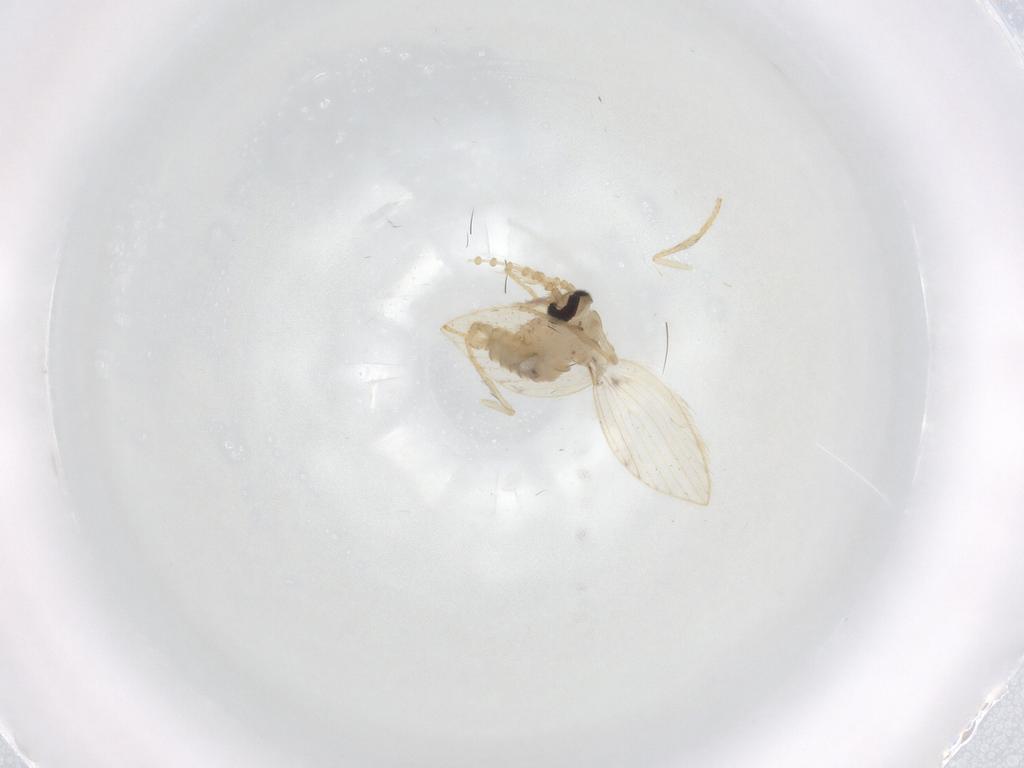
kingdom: Animalia
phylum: Arthropoda
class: Insecta
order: Diptera
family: Psychodidae
